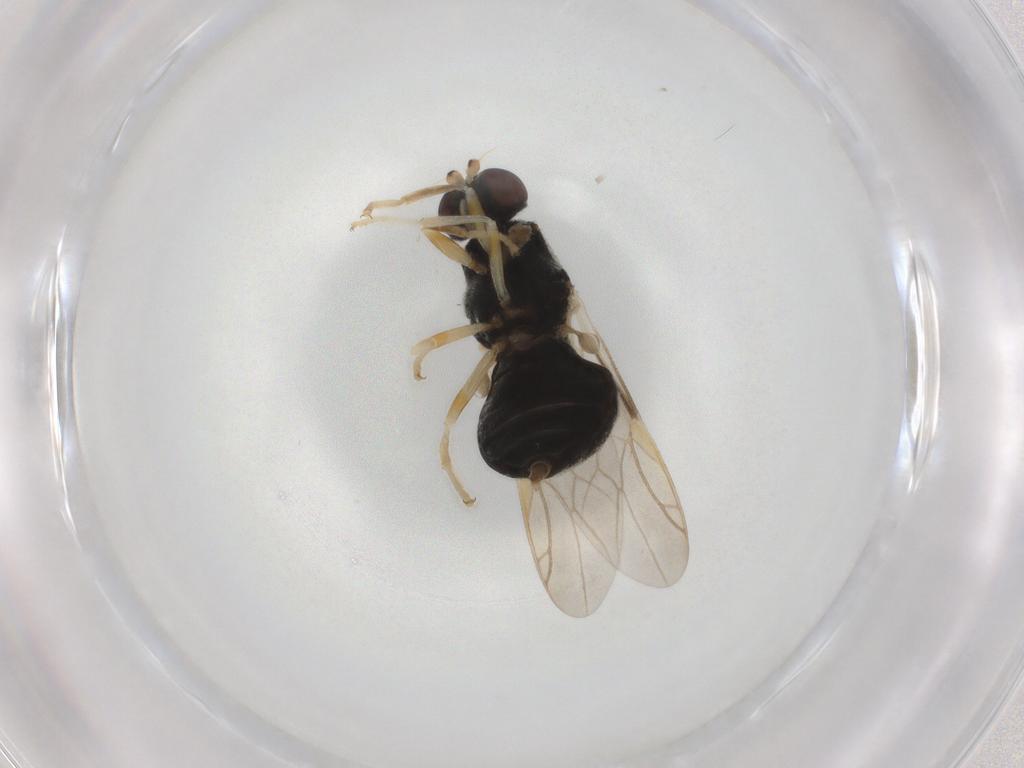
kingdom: Animalia
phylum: Arthropoda
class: Insecta
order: Diptera
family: Stratiomyidae
